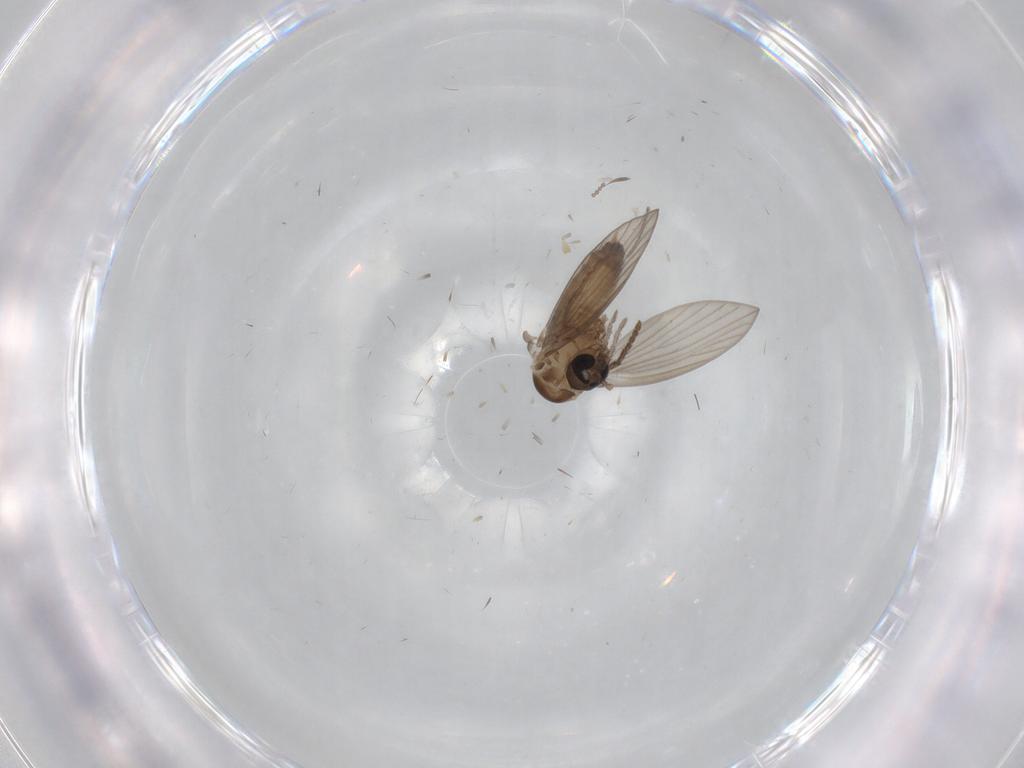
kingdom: Animalia
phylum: Arthropoda
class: Insecta
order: Diptera
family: Psychodidae
